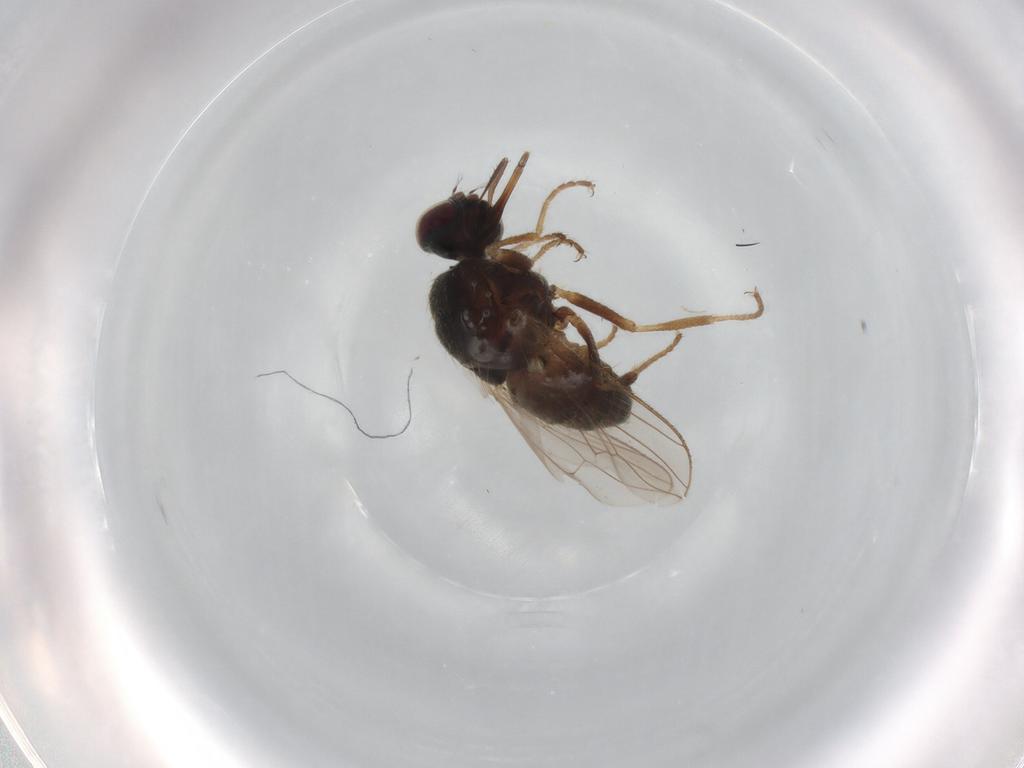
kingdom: Animalia
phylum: Arthropoda
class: Insecta
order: Diptera
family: Muscidae
